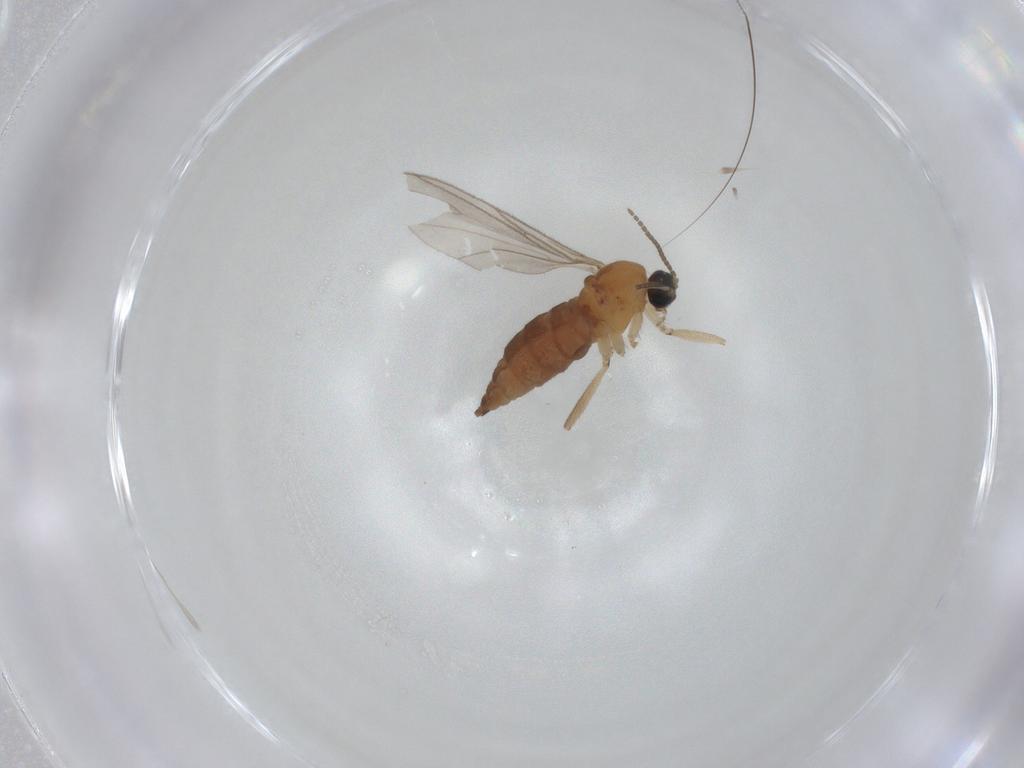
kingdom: Animalia
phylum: Arthropoda
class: Insecta
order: Diptera
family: Sciaridae
